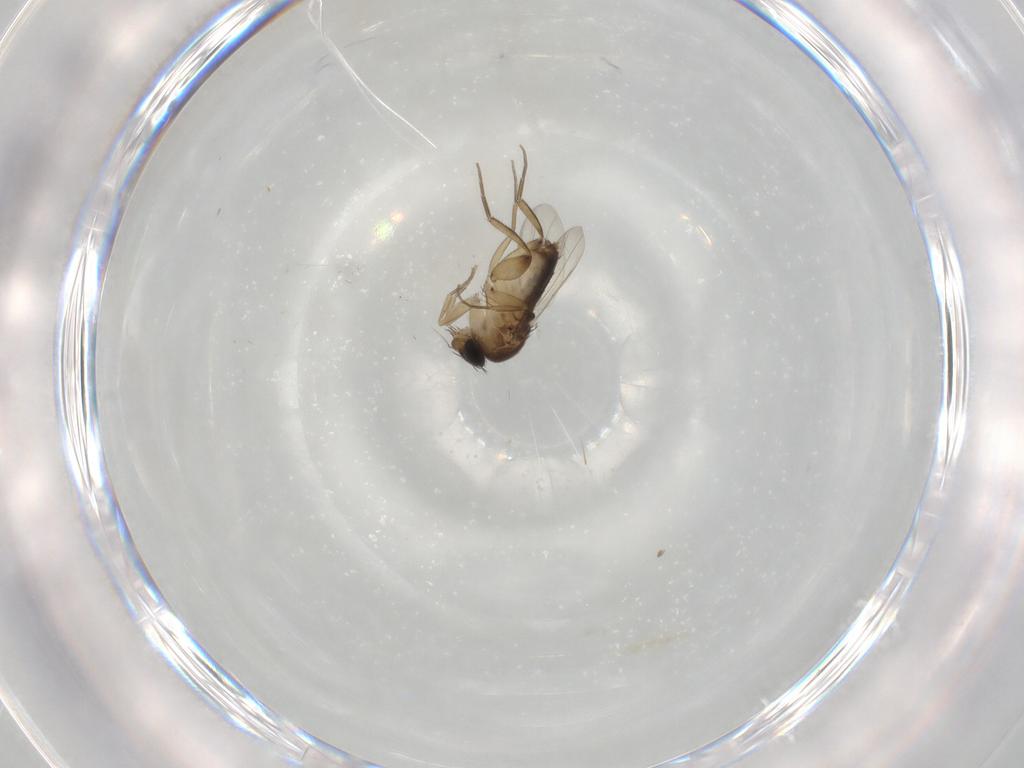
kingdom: Animalia
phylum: Arthropoda
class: Insecta
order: Diptera
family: Phoridae
